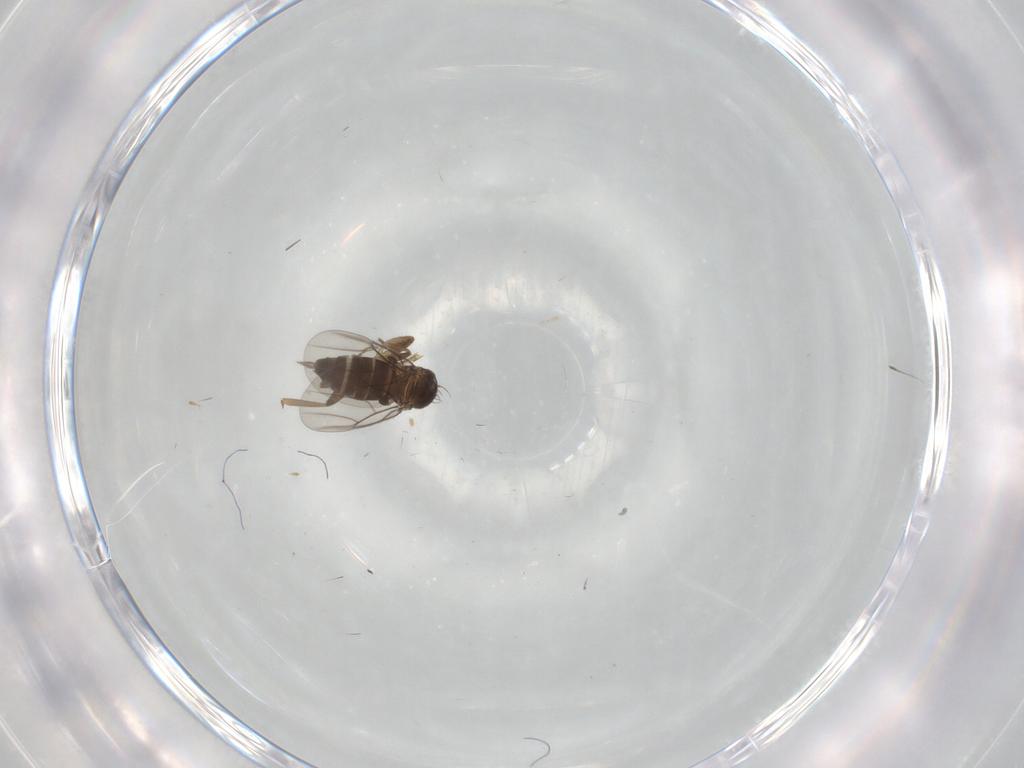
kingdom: Animalia
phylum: Arthropoda
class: Insecta
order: Diptera
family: Phoridae
